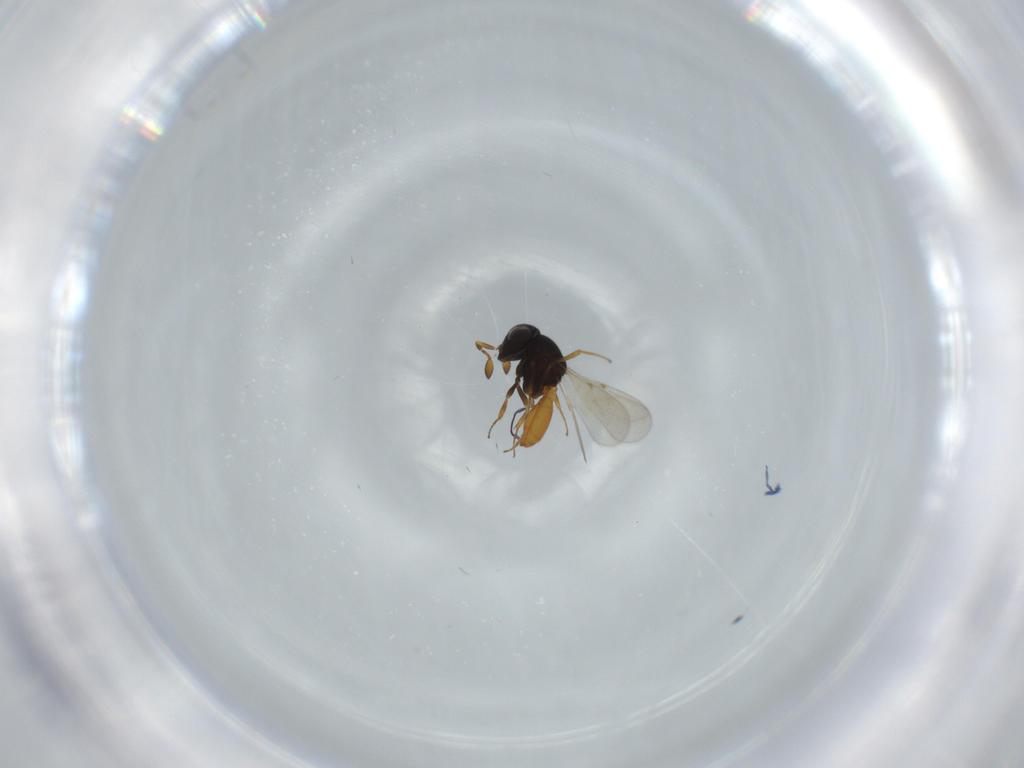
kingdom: Animalia
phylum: Arthropoda
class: Insecta
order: Hymenoptera
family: Scelionidae
